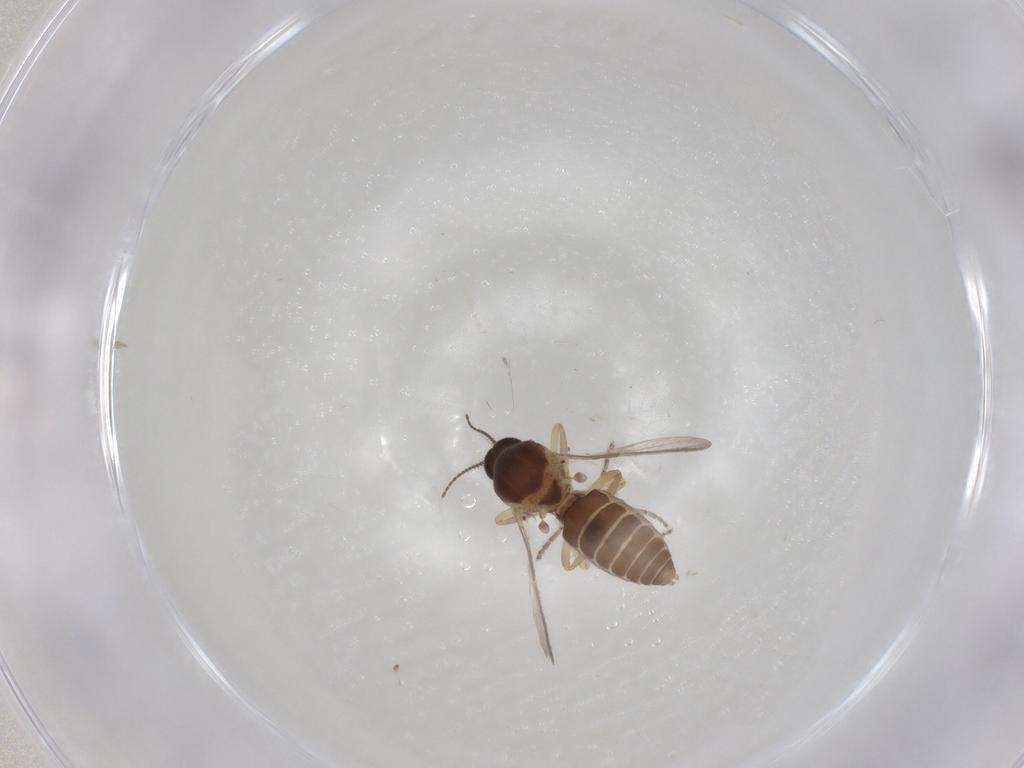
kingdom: Animalia
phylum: Arthropoda
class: Insecta
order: Diptera
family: Ceratopogonidae
